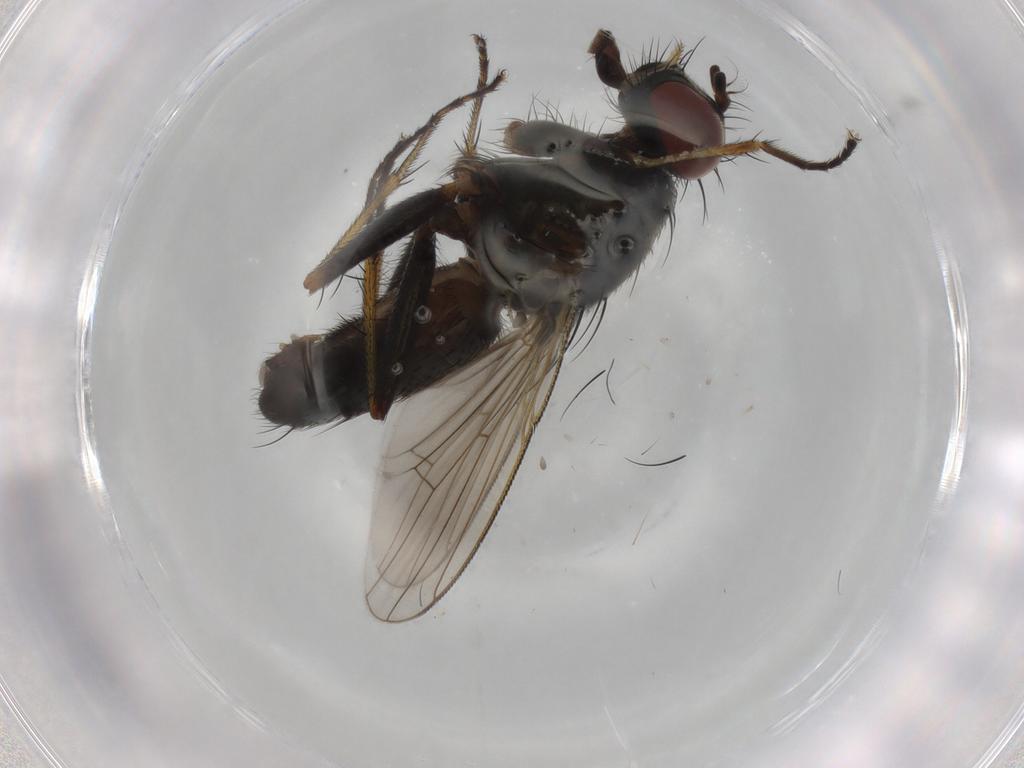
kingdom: Animalia
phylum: Arthropoda
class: Insecta
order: Diptera
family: Muscidae
